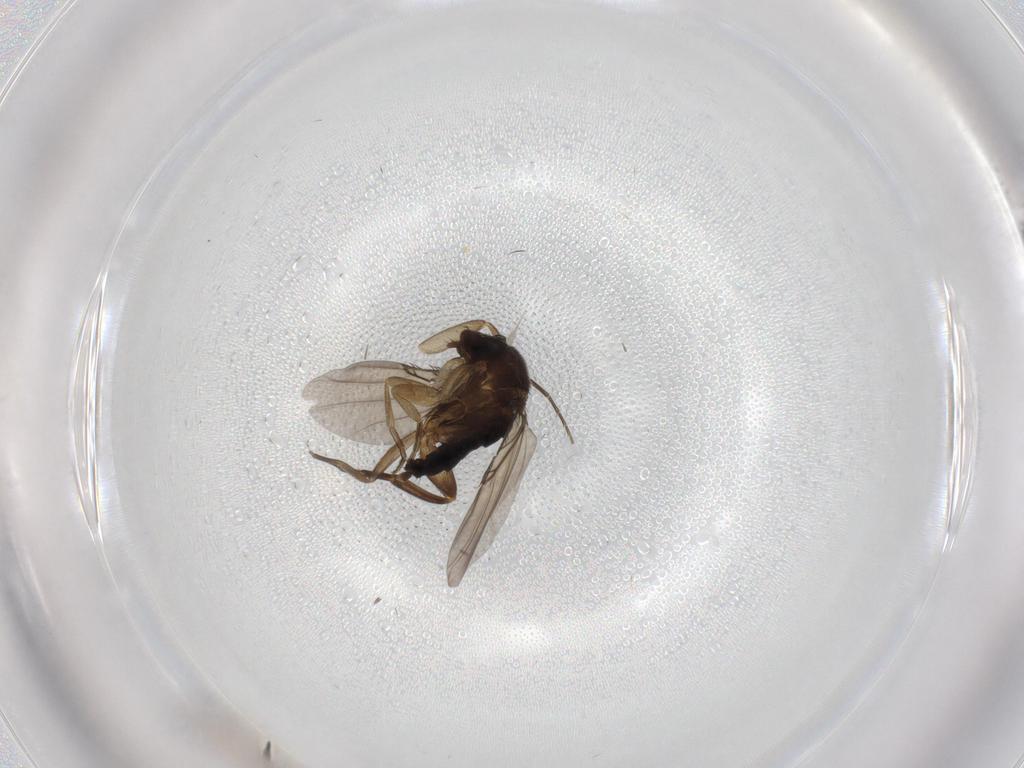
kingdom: Animalia
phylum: Arthropoda
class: Insecta
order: Diptera
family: Phoridae
